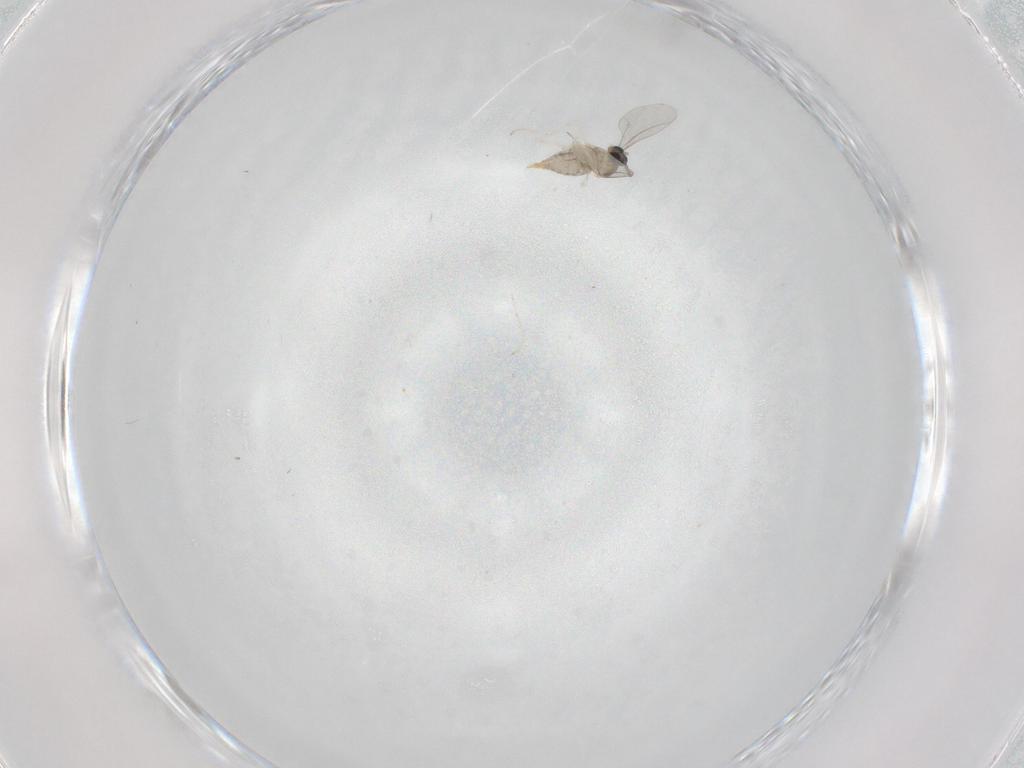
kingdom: Animalia
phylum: Arthropoda
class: Insecta
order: Diptera
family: Cecidomyiidae
